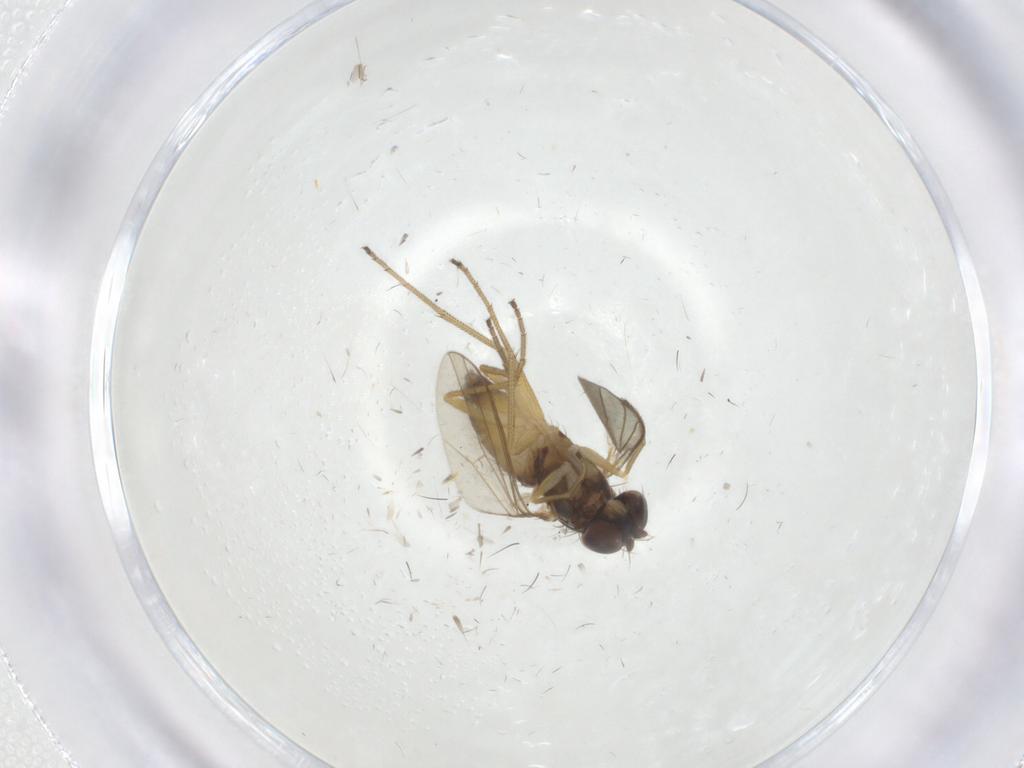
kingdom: Animalia
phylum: Arthropoda
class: Insecta
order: Diptera
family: Dolichopodidae
